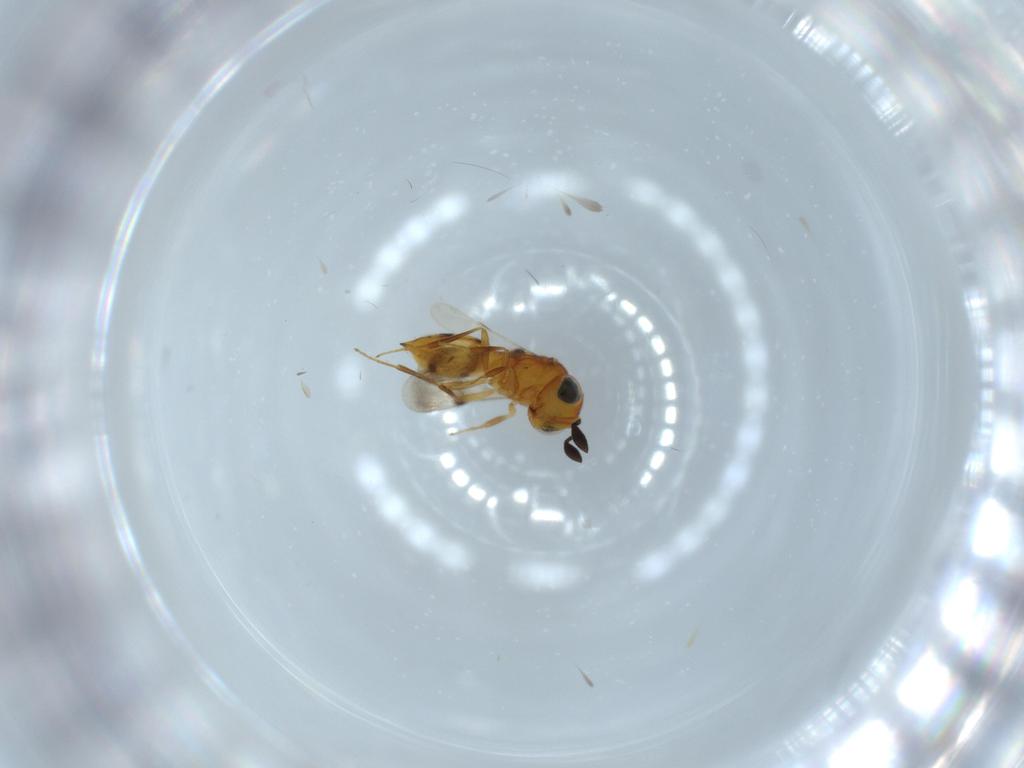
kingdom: Animalia
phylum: Arthropoda
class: Insecta
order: Hymenoptera
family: Scelionidae
